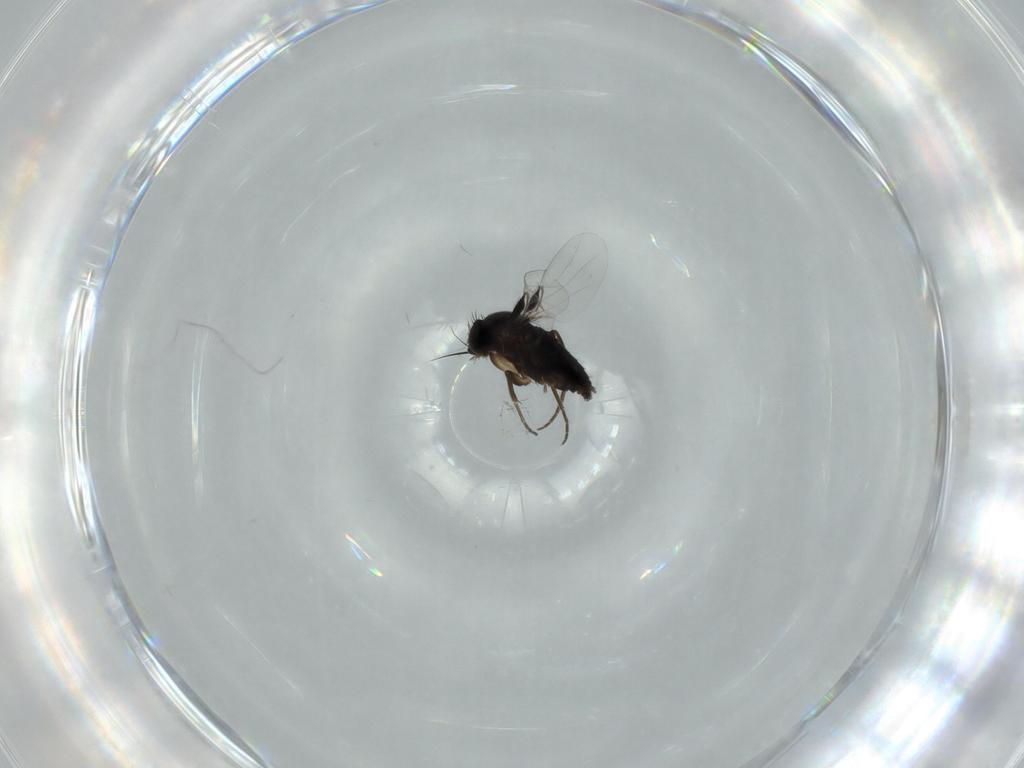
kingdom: Animalia
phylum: Arthropoda
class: Insecta
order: Diptera
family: Phoridae
